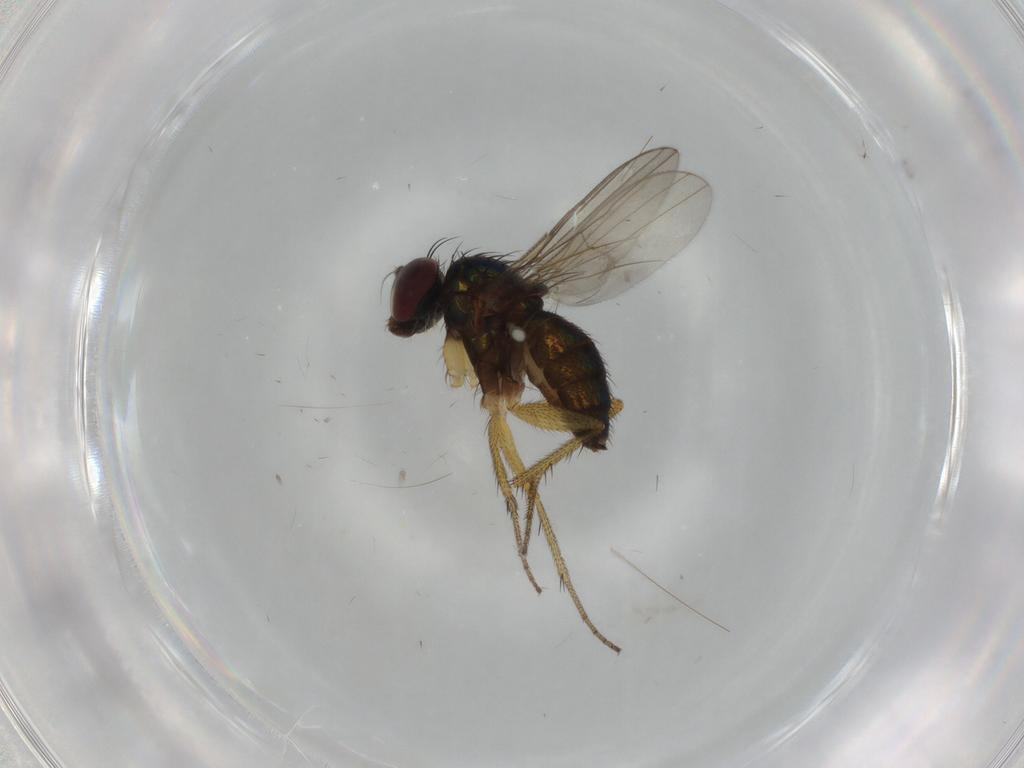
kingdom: Animalia
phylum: Arthropoda
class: Insecta
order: Diptera
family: Dolichopodidae
